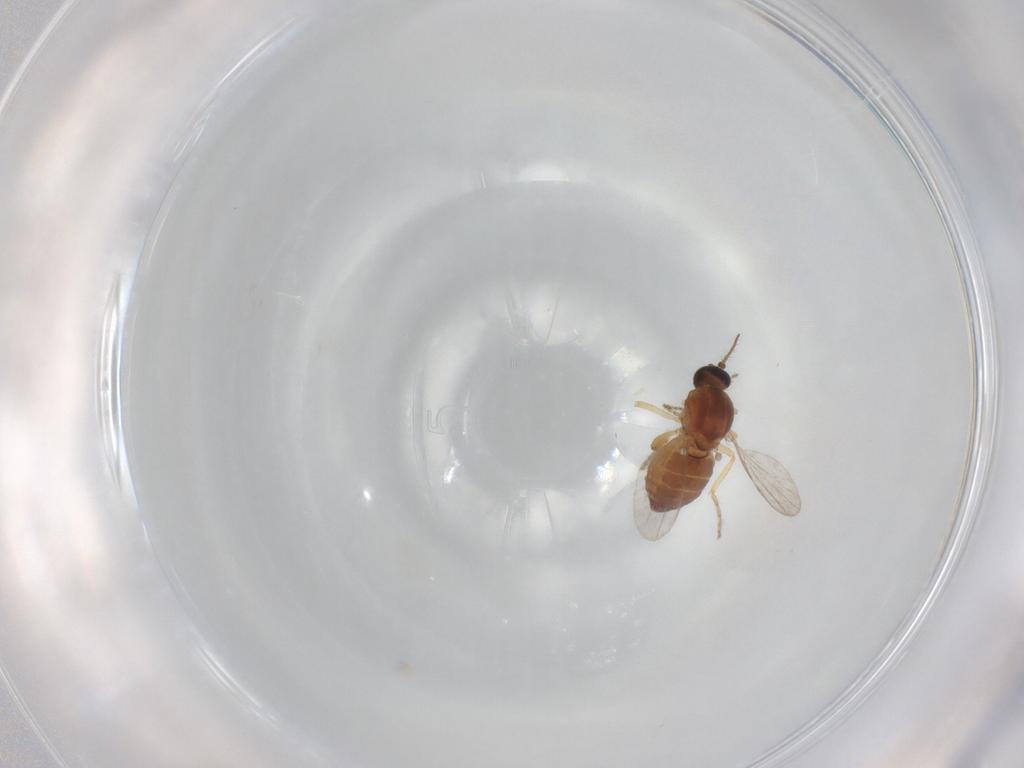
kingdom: Animalia
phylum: Arthropoda
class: Insecta
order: Diptera
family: Ceratopogonidae
